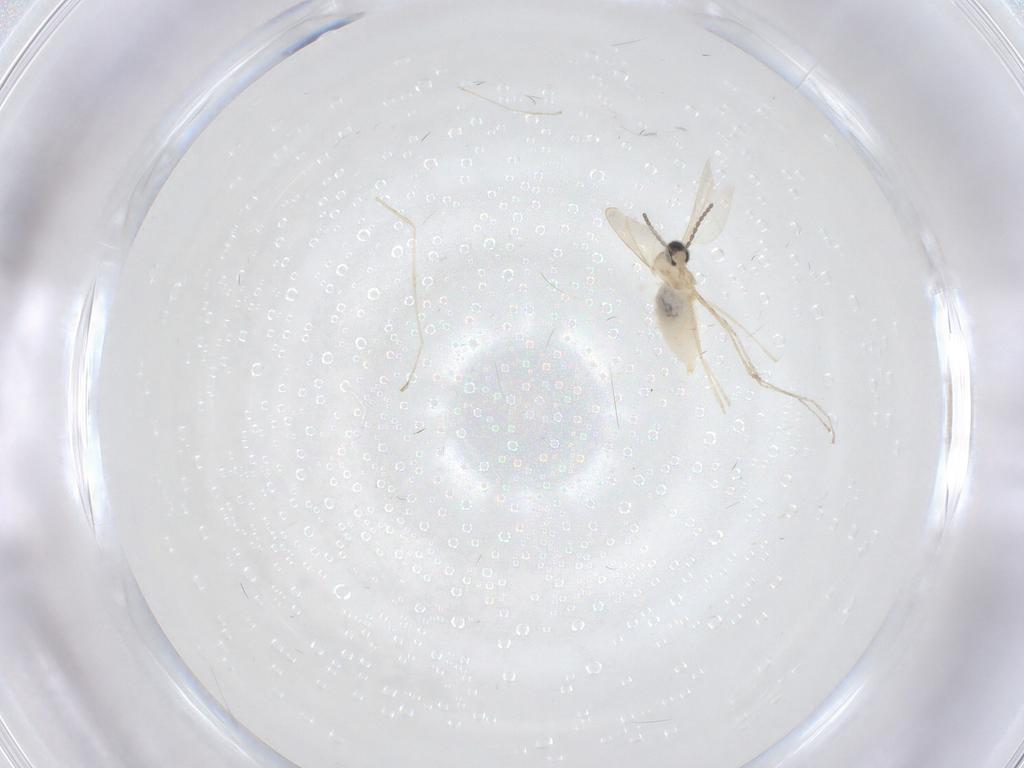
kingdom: Animalia
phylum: Arthropoda
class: Insecta
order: Diptera
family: Cecidomyiidae
